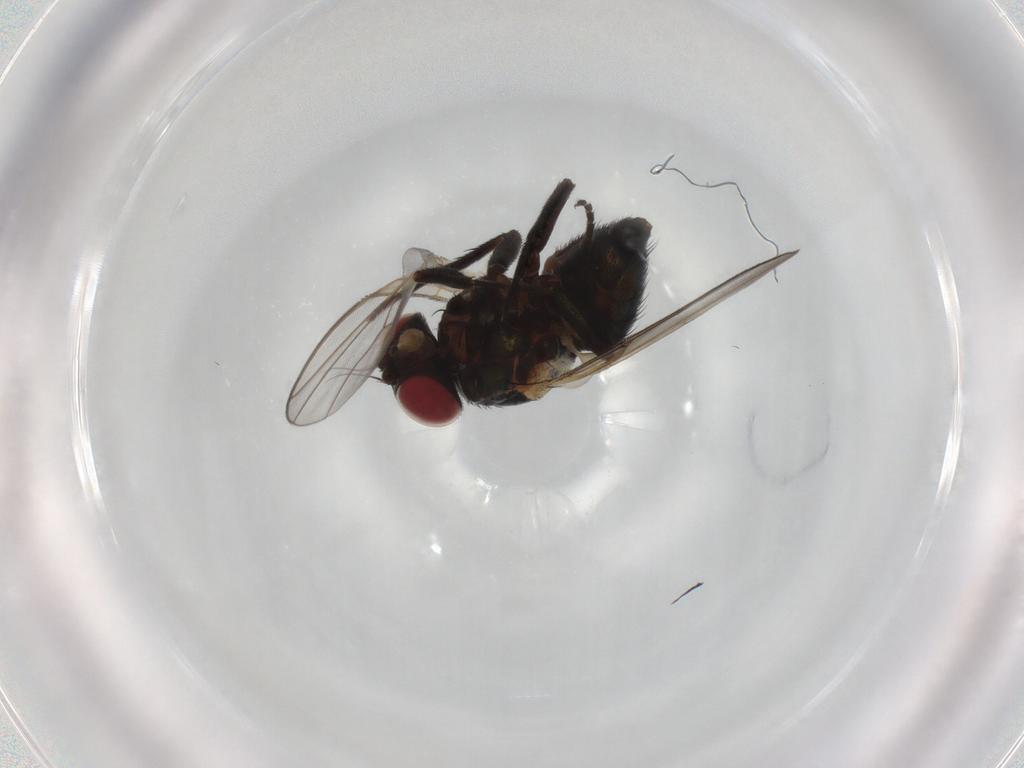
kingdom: Animalia
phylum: Arthropoda
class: Insecta
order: Diptera
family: Agromyzidae
